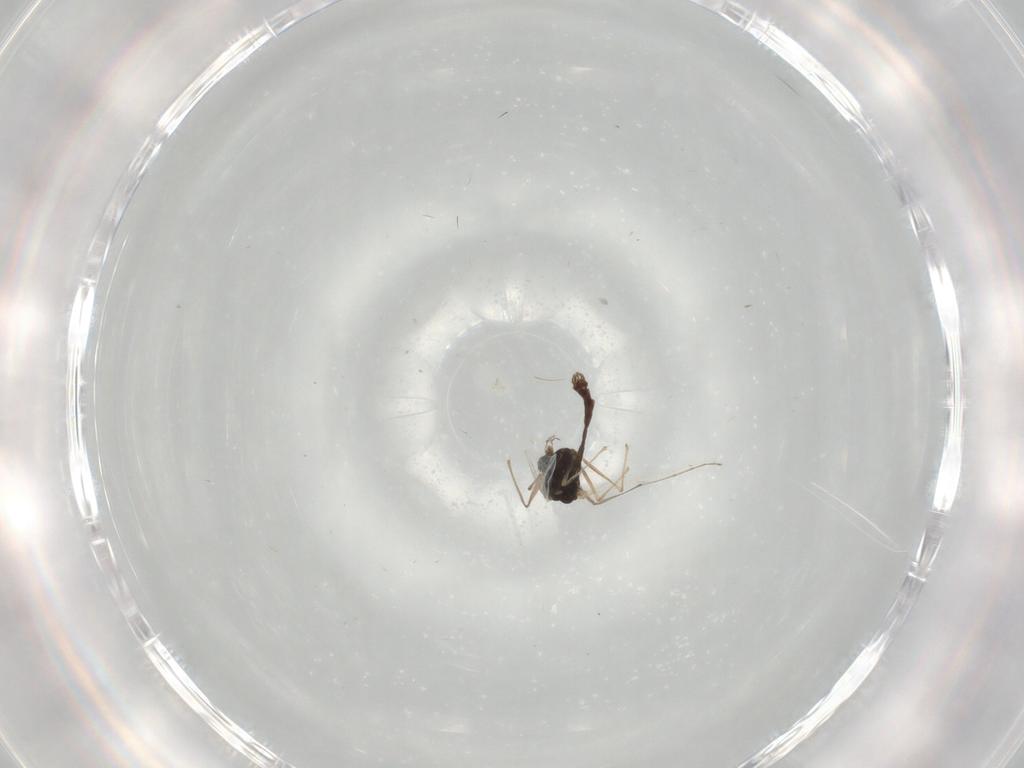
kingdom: Animalia
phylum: Arthropoda
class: Insecta
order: Diptera
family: Chironomidae
